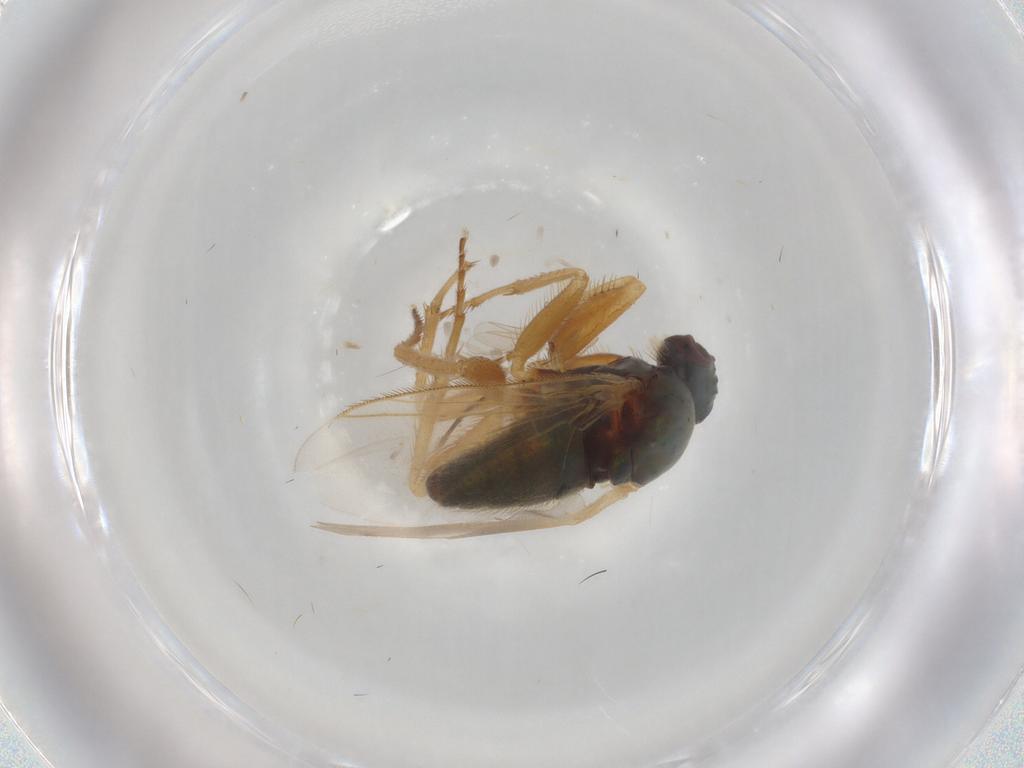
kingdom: Animalia
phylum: Arthropoda
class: Insecta
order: Diptera
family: Dolichopodidae
